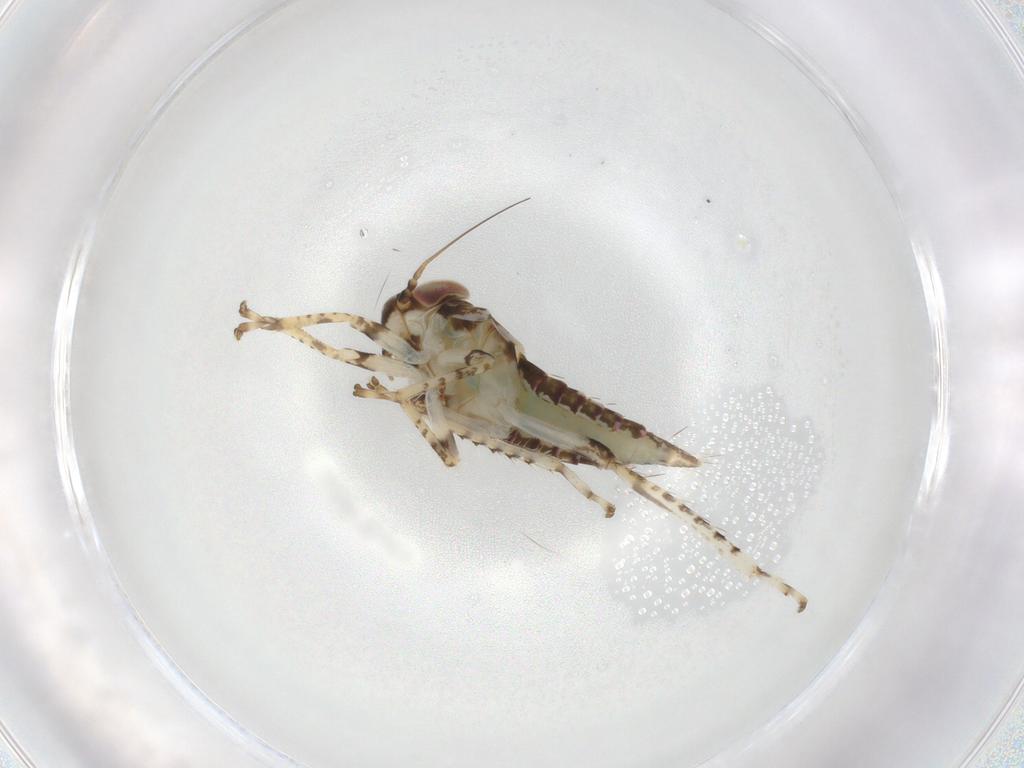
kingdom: Animalia
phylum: Arthropoda
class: Insecta
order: Hemiptera
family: Cicadellidae
